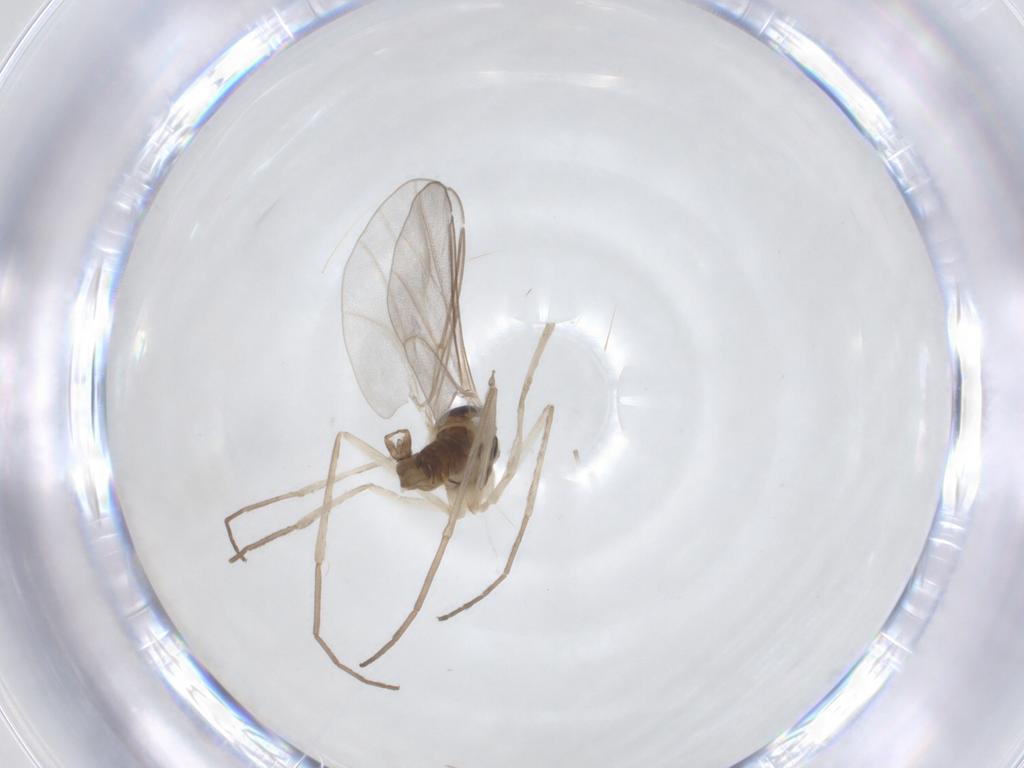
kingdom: Animalia
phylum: Arthropoda
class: Insecta
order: Diptera
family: Cecidomyiidae
